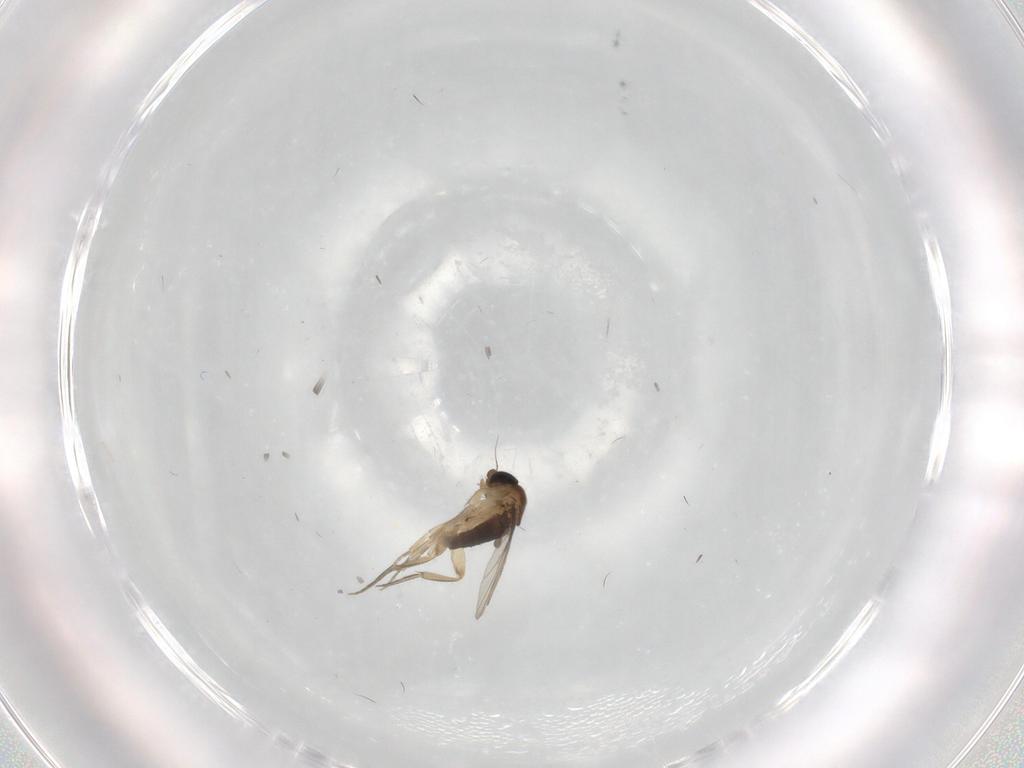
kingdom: Animalia
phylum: Arthropoda
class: Insecta
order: Diptera
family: Phoridae
